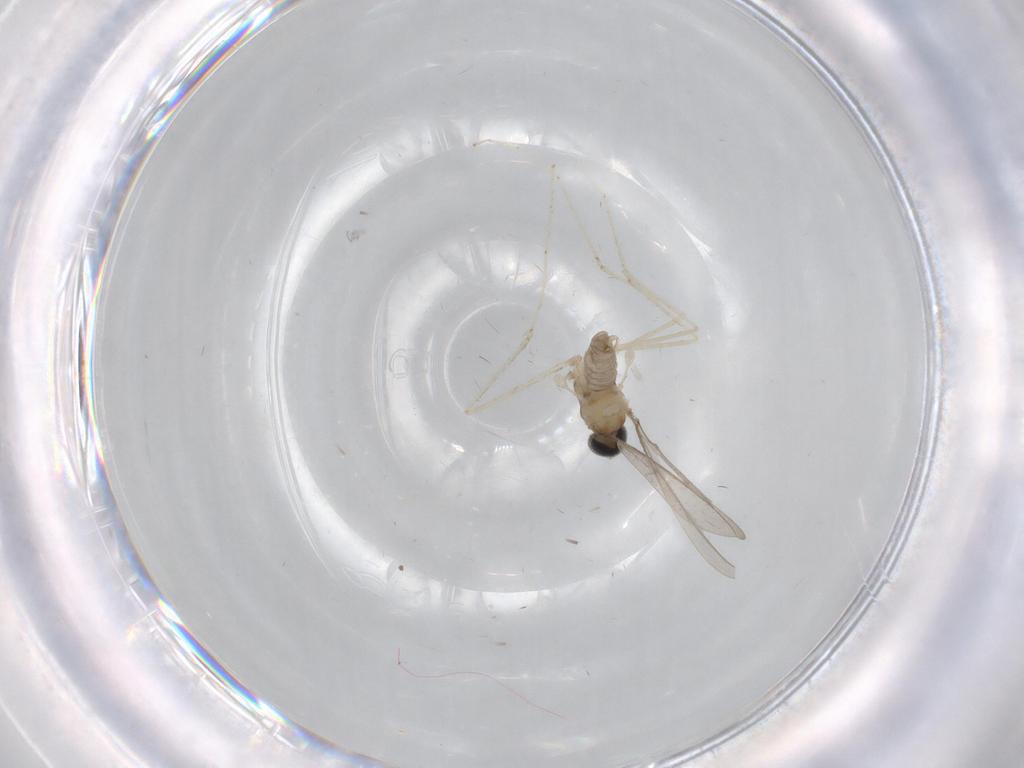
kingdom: Animalia
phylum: Arthropoda
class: Insecta
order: Diptera
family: Cecidomyiidae
